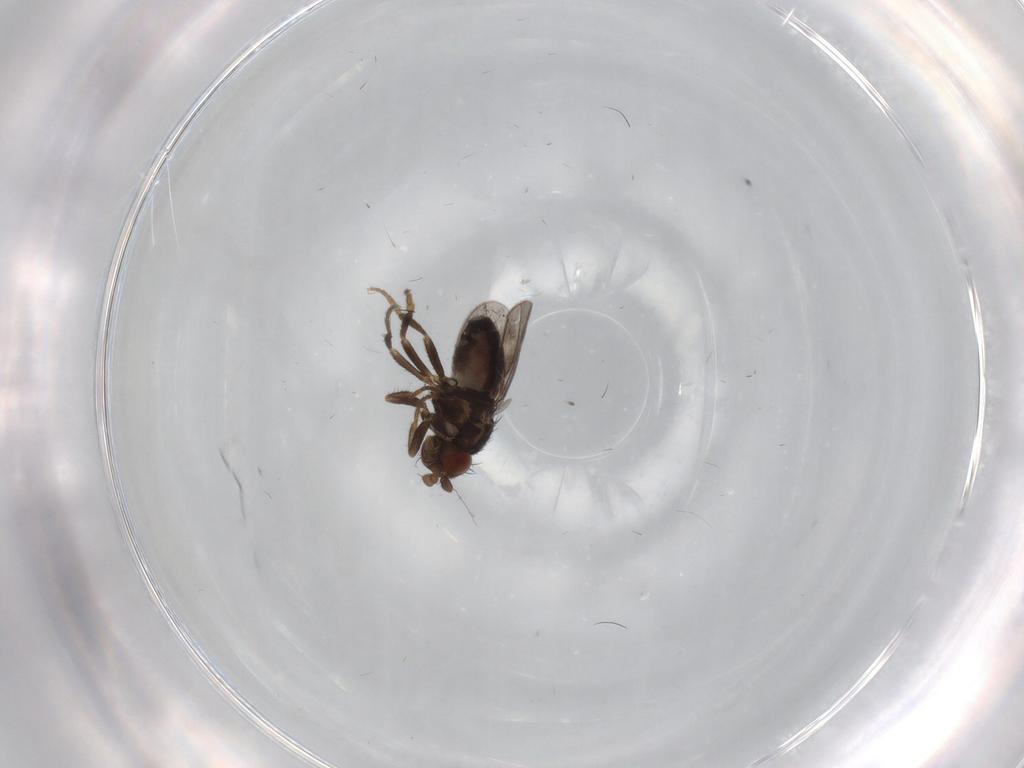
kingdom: Animalia
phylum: Arthropoda
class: Insecta
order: Diptera
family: Sphaeroceridae
